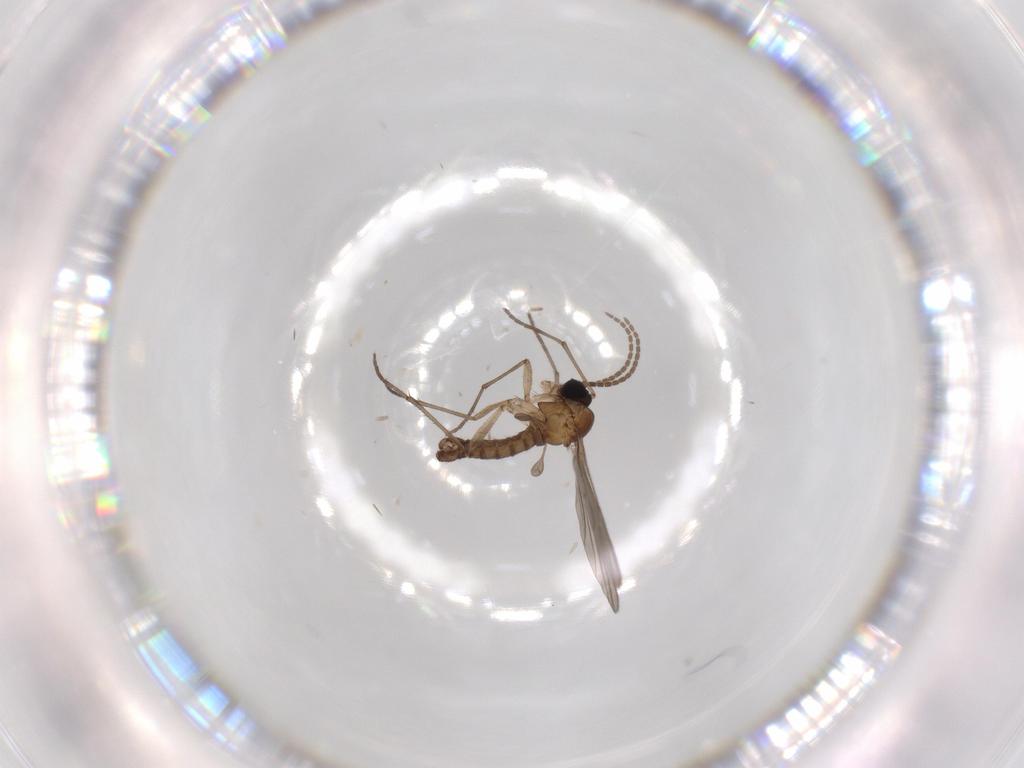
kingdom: Animalia
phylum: Arthropoda
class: Insecta
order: Diptera
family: Sciaridae
